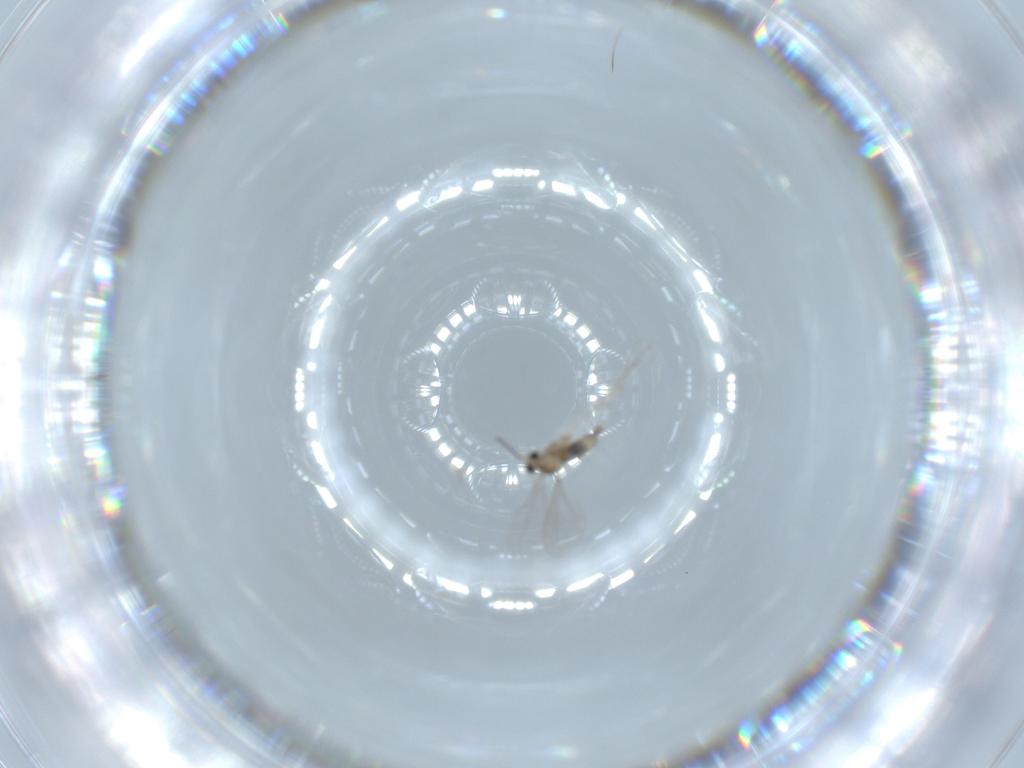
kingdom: Animalia
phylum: Arthropoda
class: Insecta
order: Diptera
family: Cecidomyiidae
